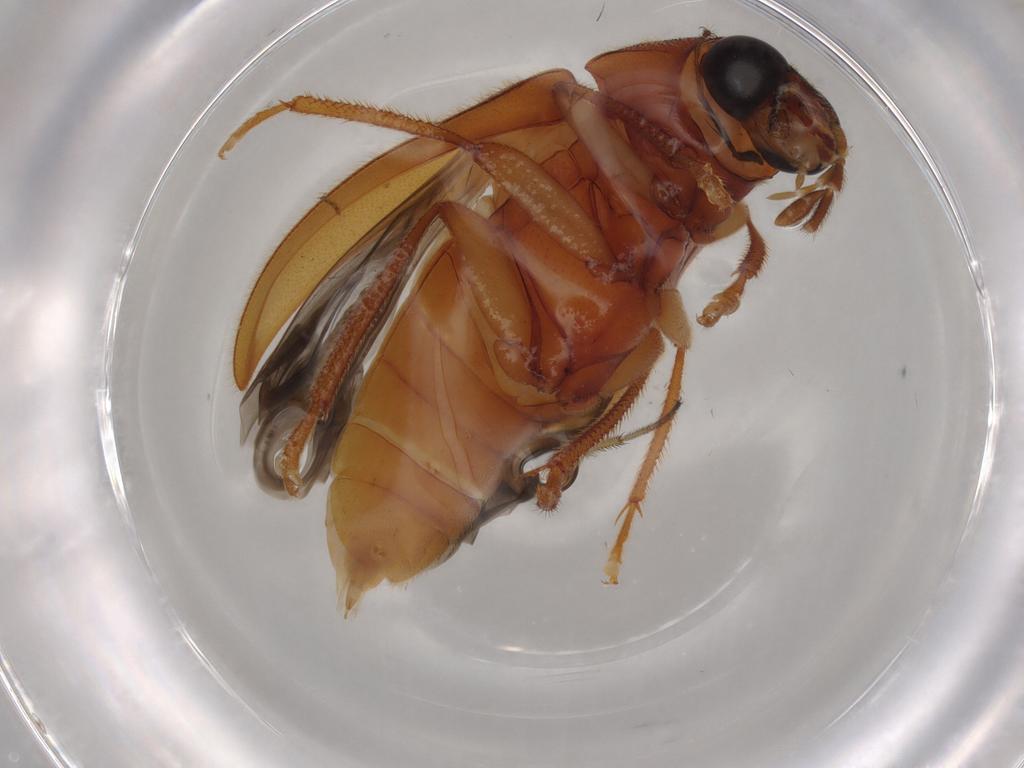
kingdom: Animalia
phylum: Arthropoda
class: Insecta
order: Coleoptera
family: Ptilodactylidae
